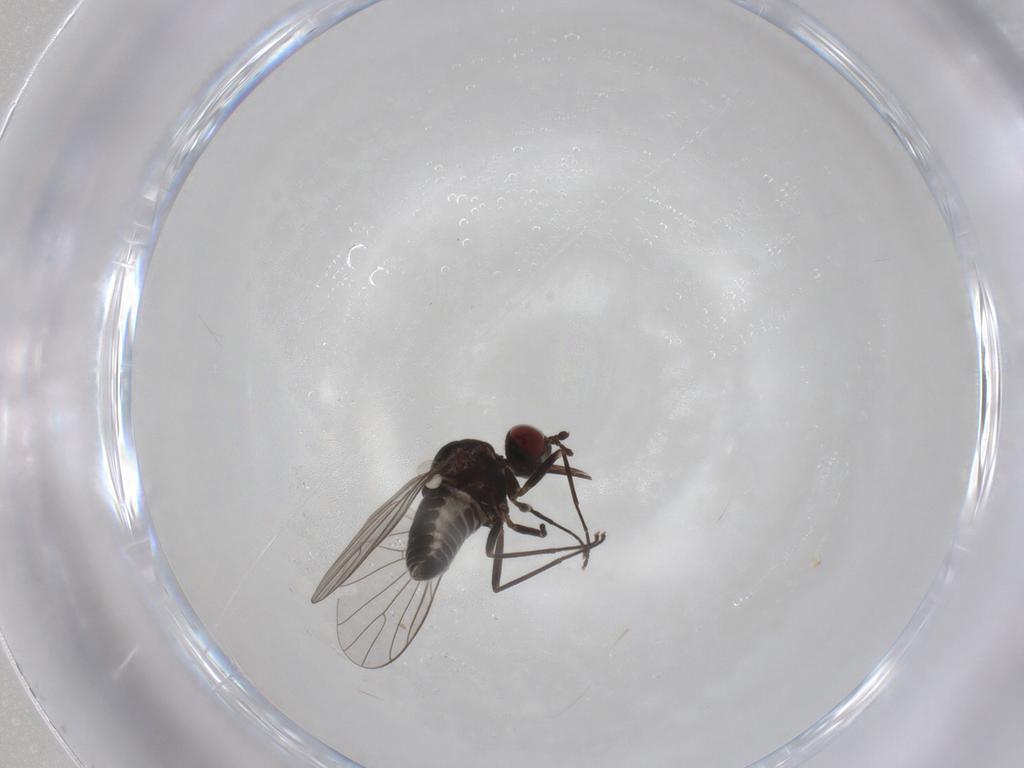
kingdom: Animalia
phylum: Arthropoda
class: Insecta
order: Diptera
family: Bombyliidae
